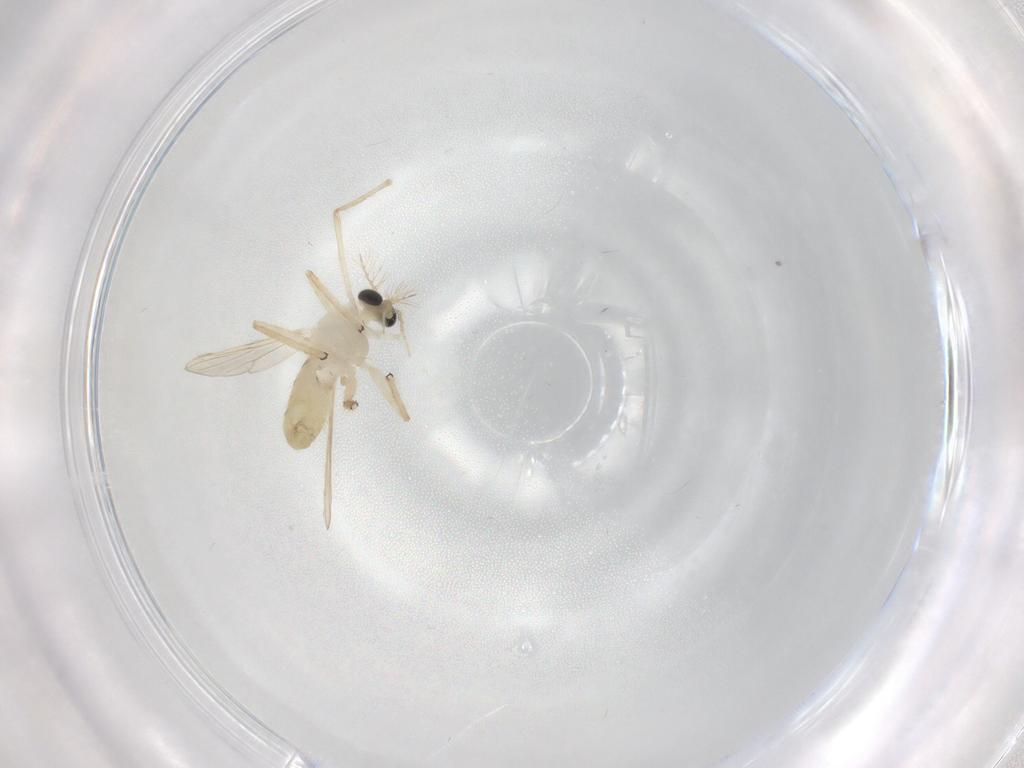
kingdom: Animalia
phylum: Arthropoda
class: Insecta
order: Diptera
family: Chironomidae
